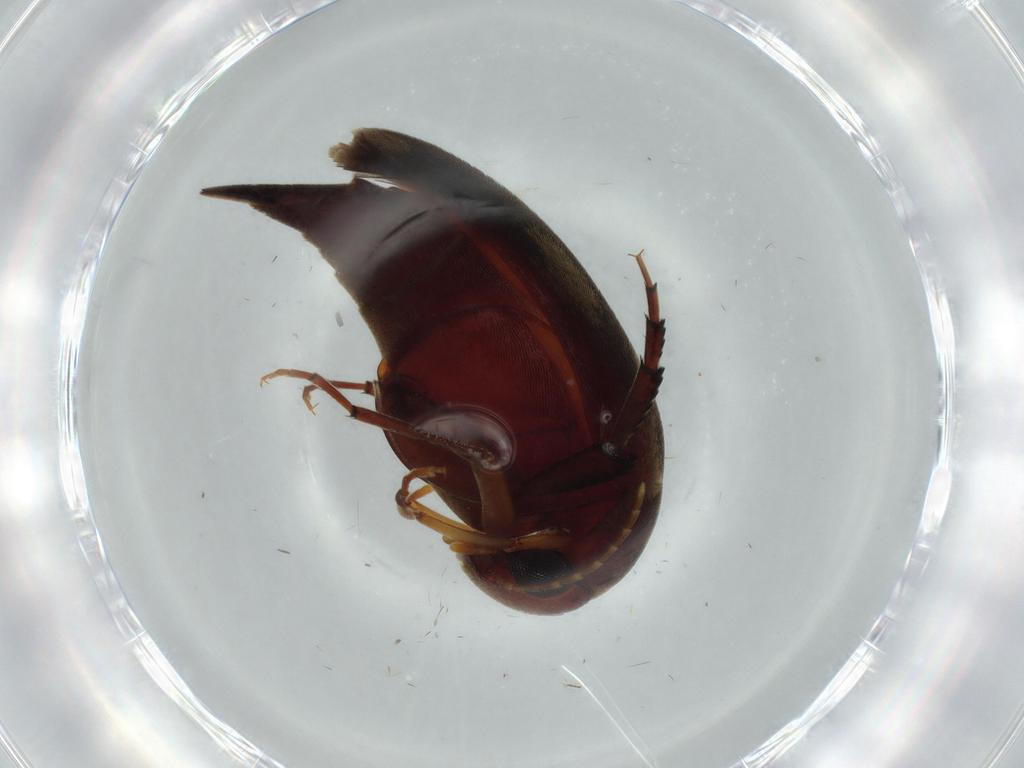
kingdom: Animalia
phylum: Arthropoda
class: Insecta
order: Coleoptera
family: Mordellidae
